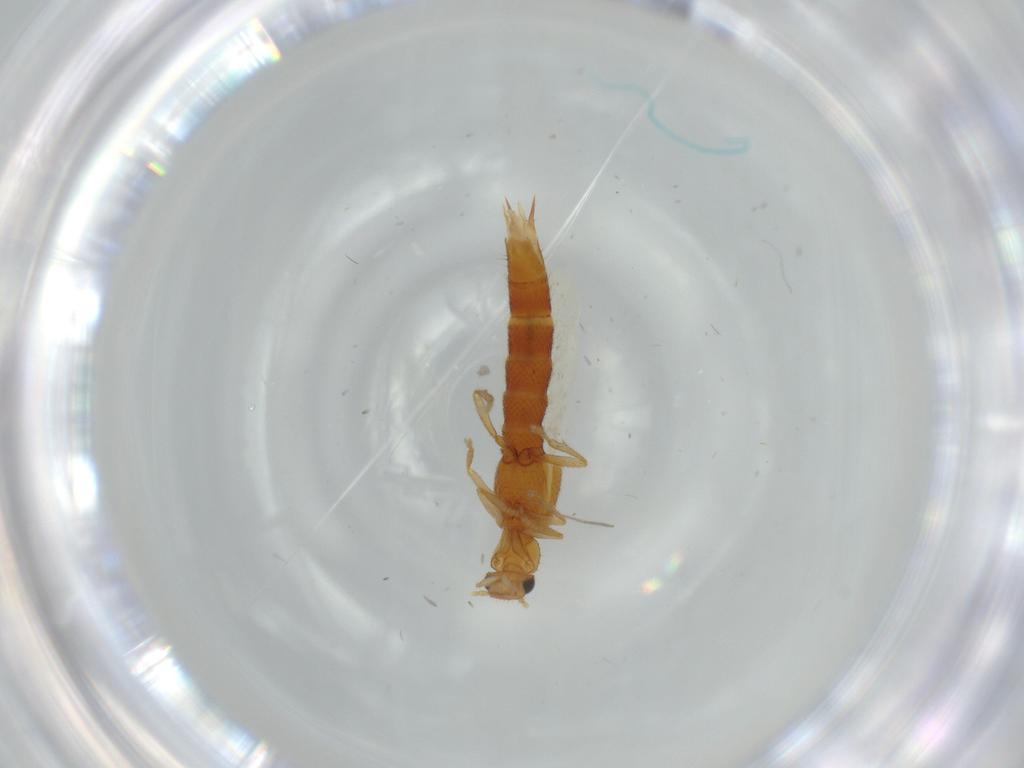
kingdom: Animalia
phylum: Arthropoda
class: Insecta
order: Coleoptera
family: Staphylinidae
